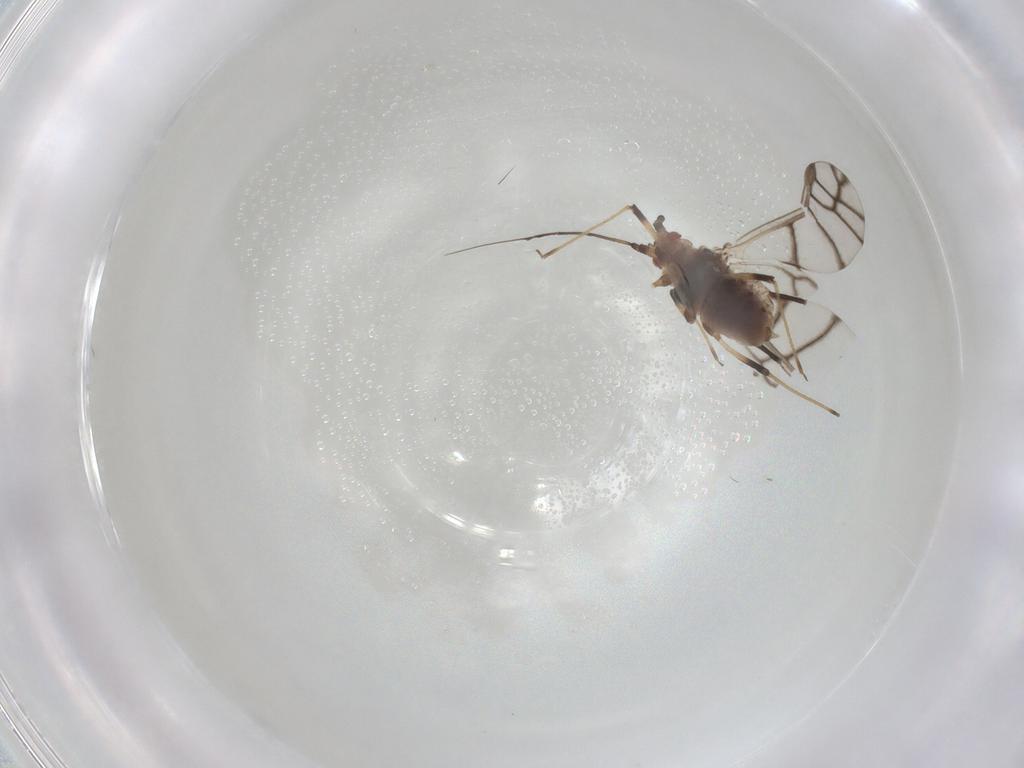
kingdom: Animalia
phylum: Arthropoda
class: Insecta
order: Hemiptera
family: Aphididae
